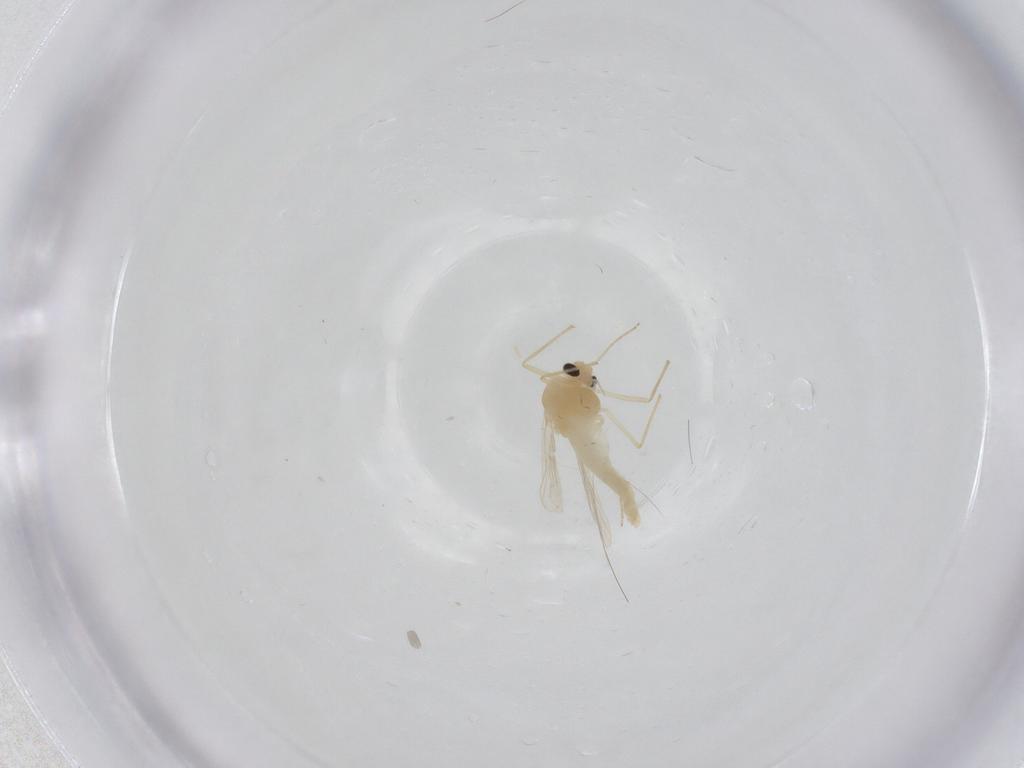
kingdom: Animalia
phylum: Arthropoda
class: Insecta
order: Diptera
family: Chironomidae
